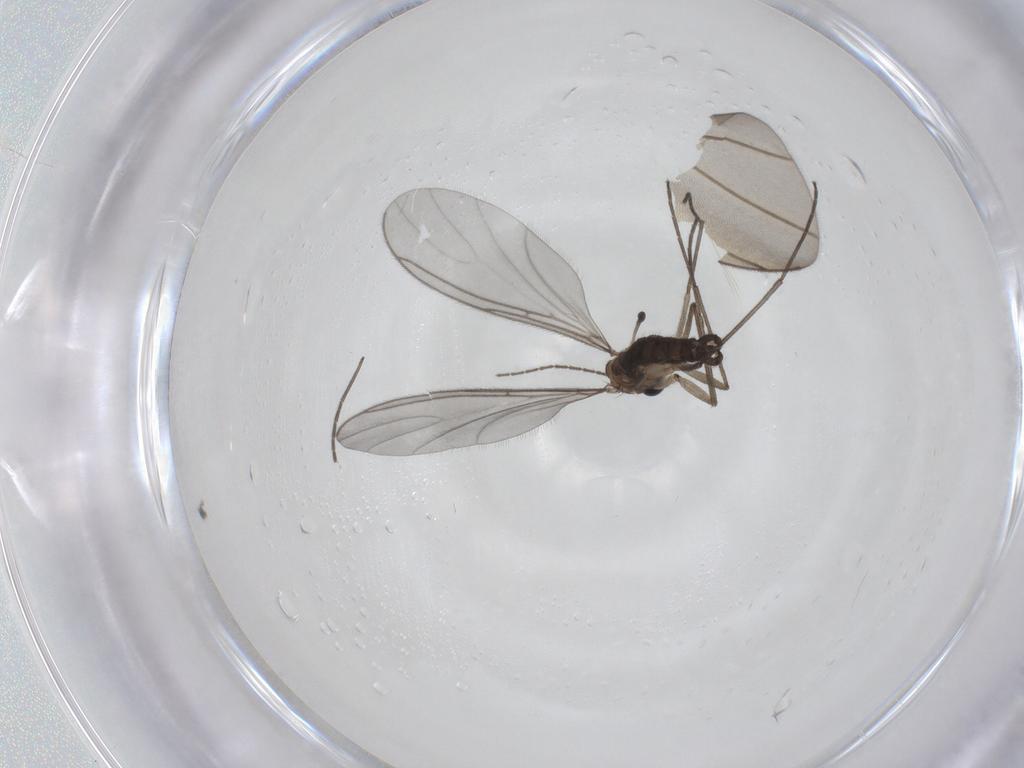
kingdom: Animalia
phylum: Arthropoda
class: Insecta
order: Diptera
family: Sciaridae
